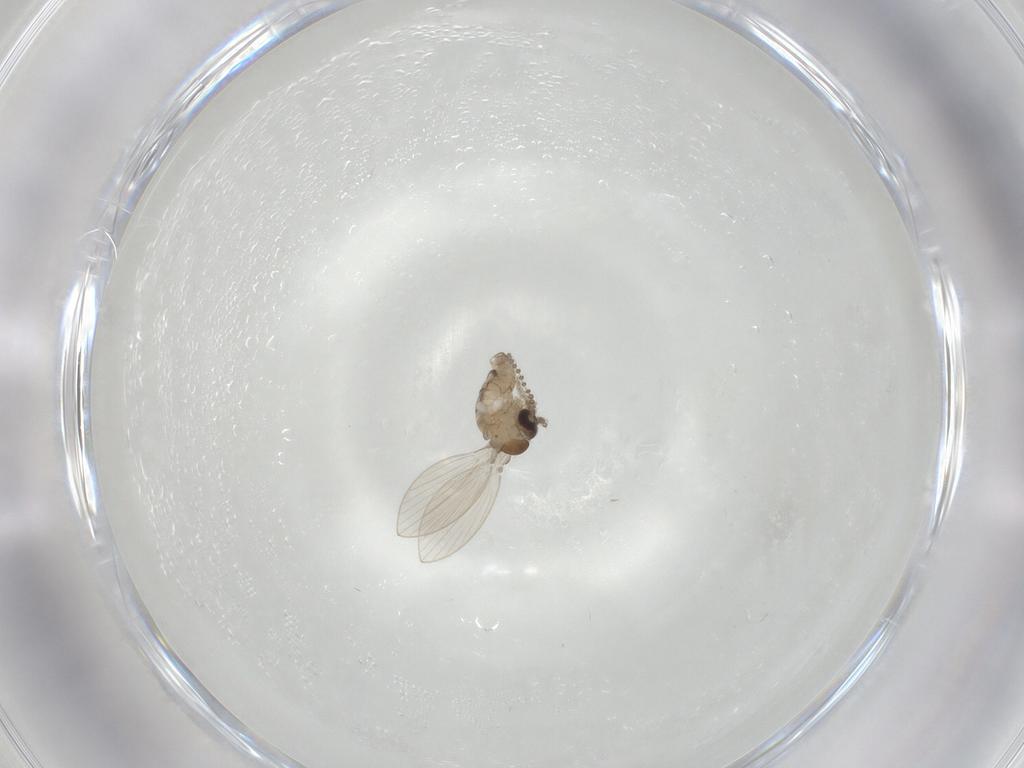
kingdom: Animalia
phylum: Arthropoda
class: Insecta
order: Diptera
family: Psychodidae
